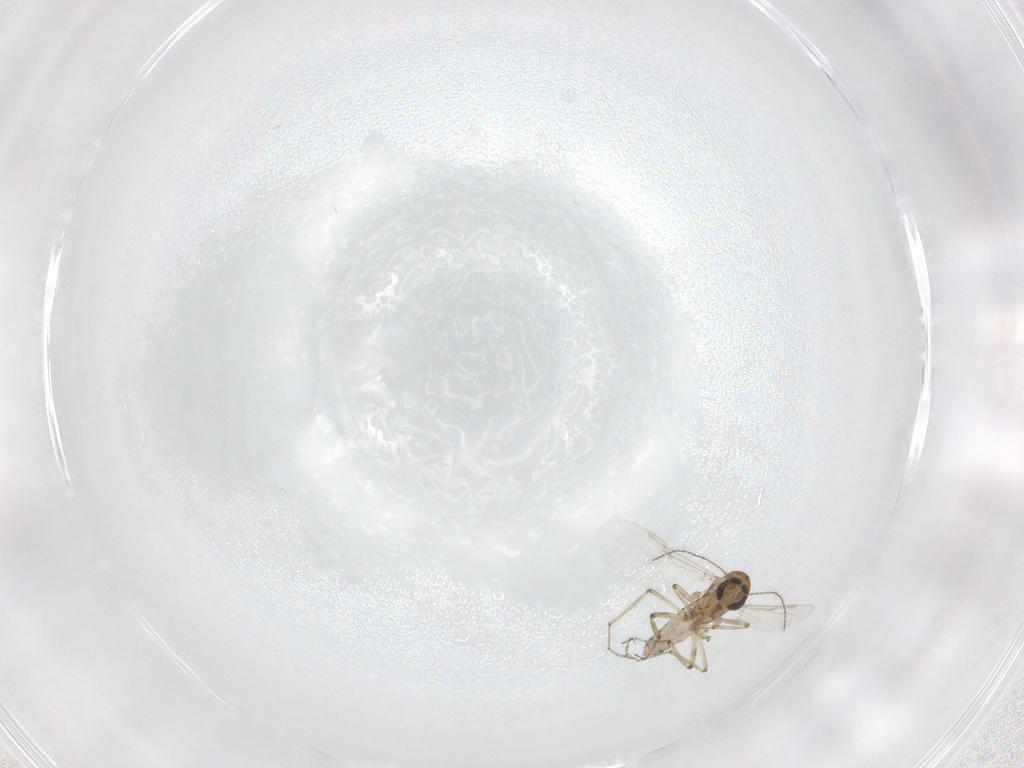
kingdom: Animalia
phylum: Arthropoda
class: Insecta
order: Diptera
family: Ceratopogonidae
